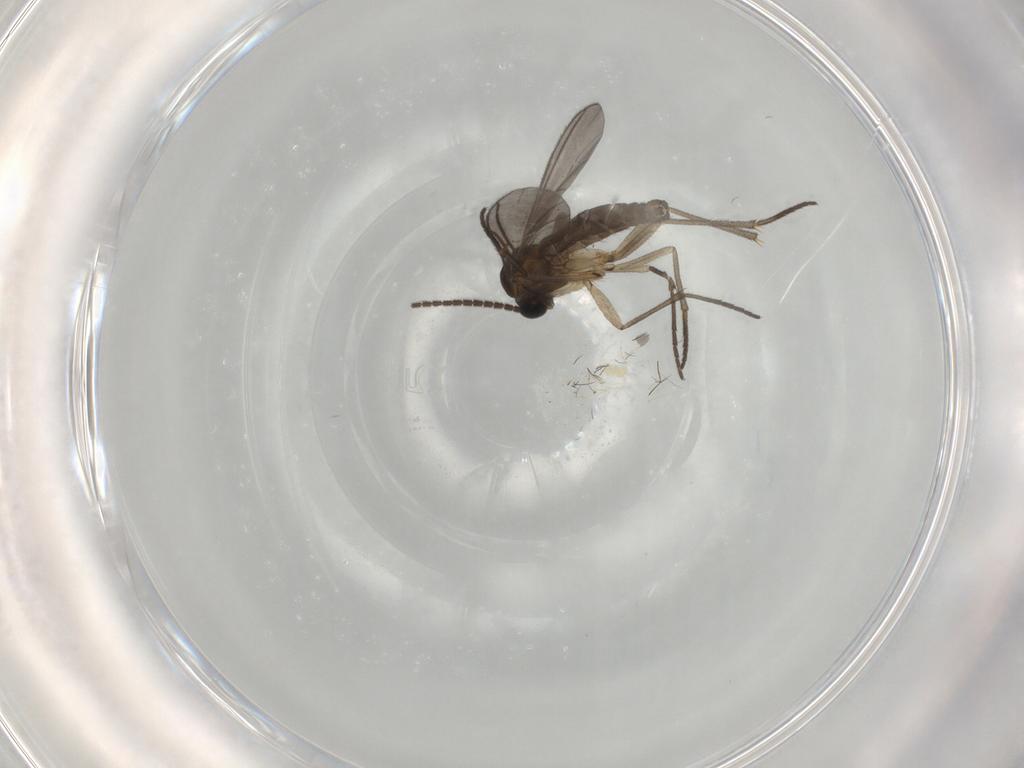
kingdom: Animalia
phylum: Arthropoda
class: Insecta
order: Diptera
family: Sciaridae
